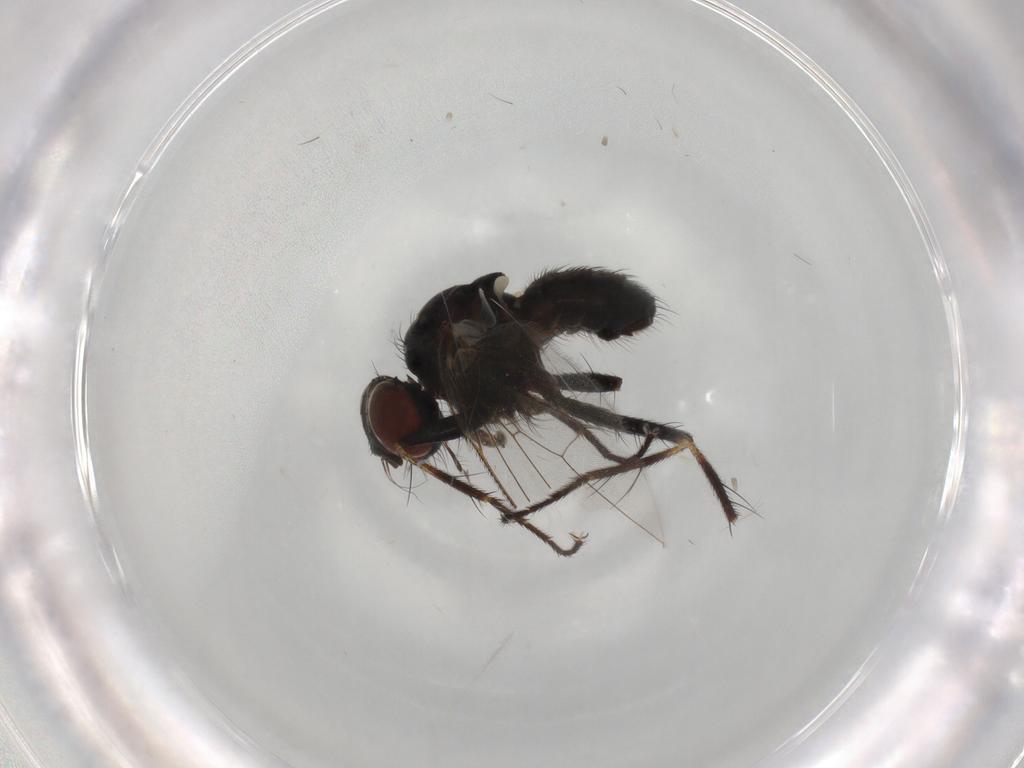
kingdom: Animalia
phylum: Arthropoda
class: Insecta
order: Diptera
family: Muscidae
